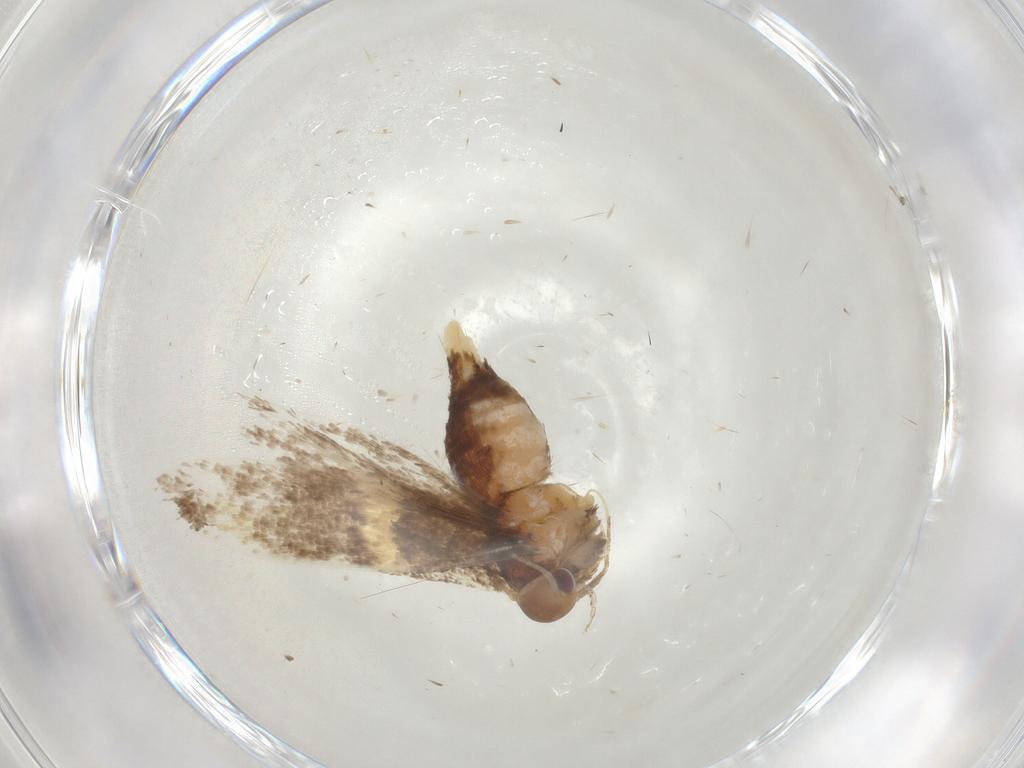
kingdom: Animalia
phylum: Arthropoda
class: Insecta
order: Lepidoptera
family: Oecophoridae
